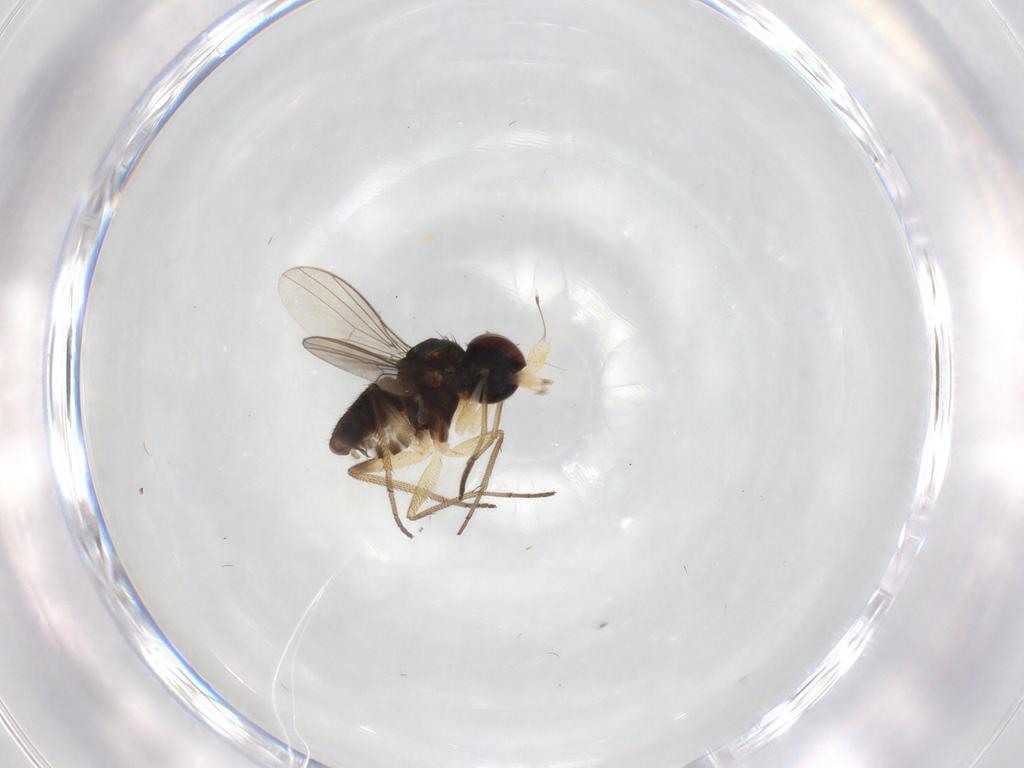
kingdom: Animalia
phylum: Arthropoda
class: Insecta
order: Diptera
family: Dolichopodidae
